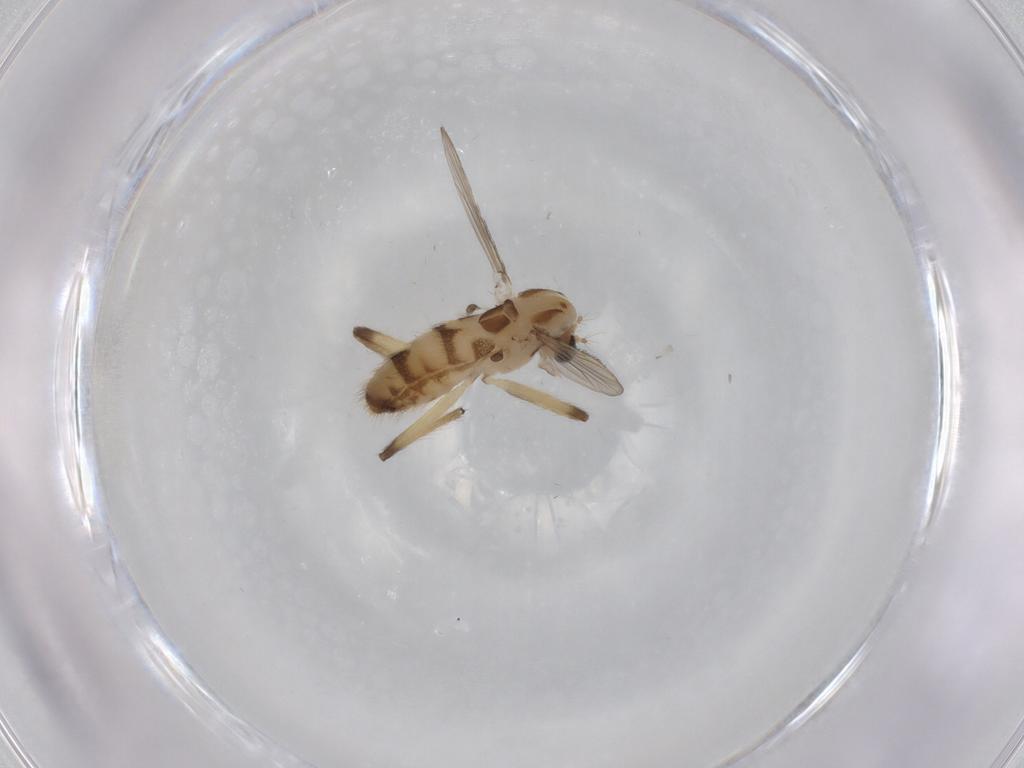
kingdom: Animalia
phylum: Arthropoda
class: Insecta
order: Diptera
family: Chironomidae
